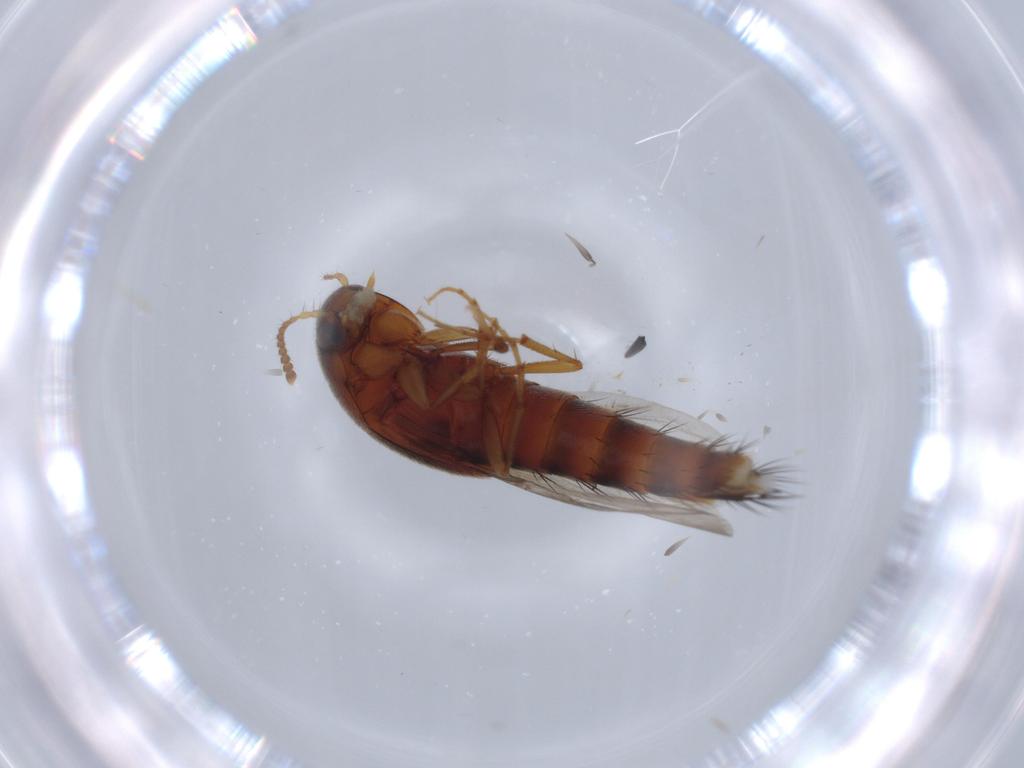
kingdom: Animalia
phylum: Arthropoda
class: Insecta
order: Coleoptera
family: Staphylinidae
